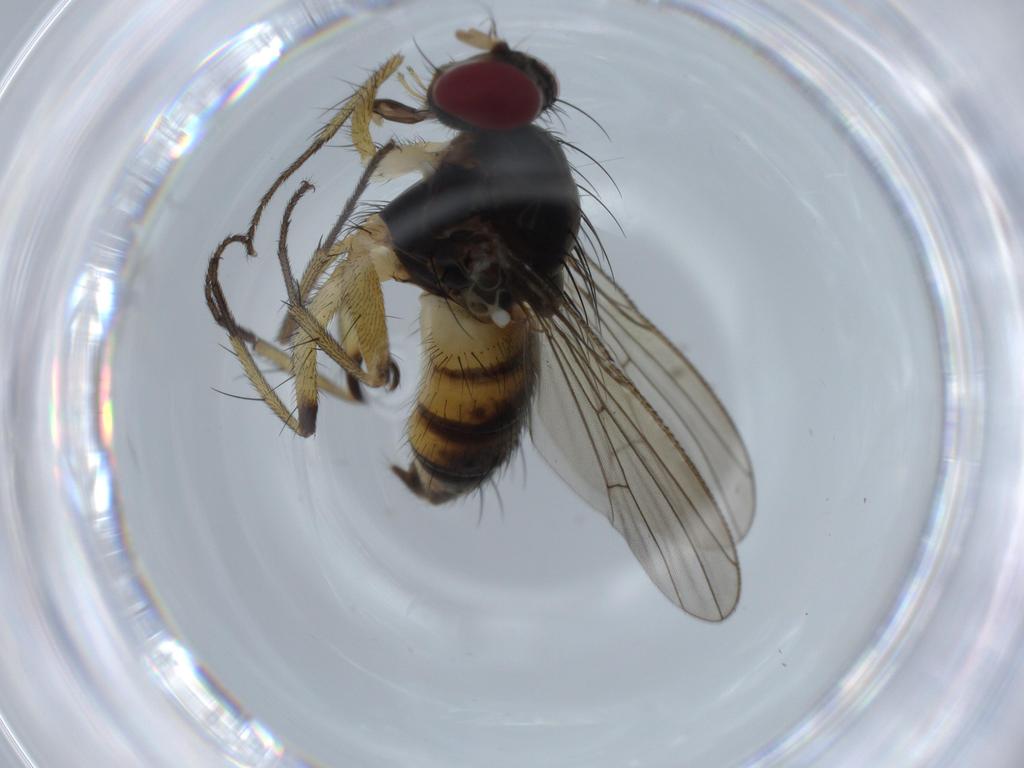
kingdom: Animalia
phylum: Arthropoda
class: Insecta
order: Diptera
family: Sciaridae
